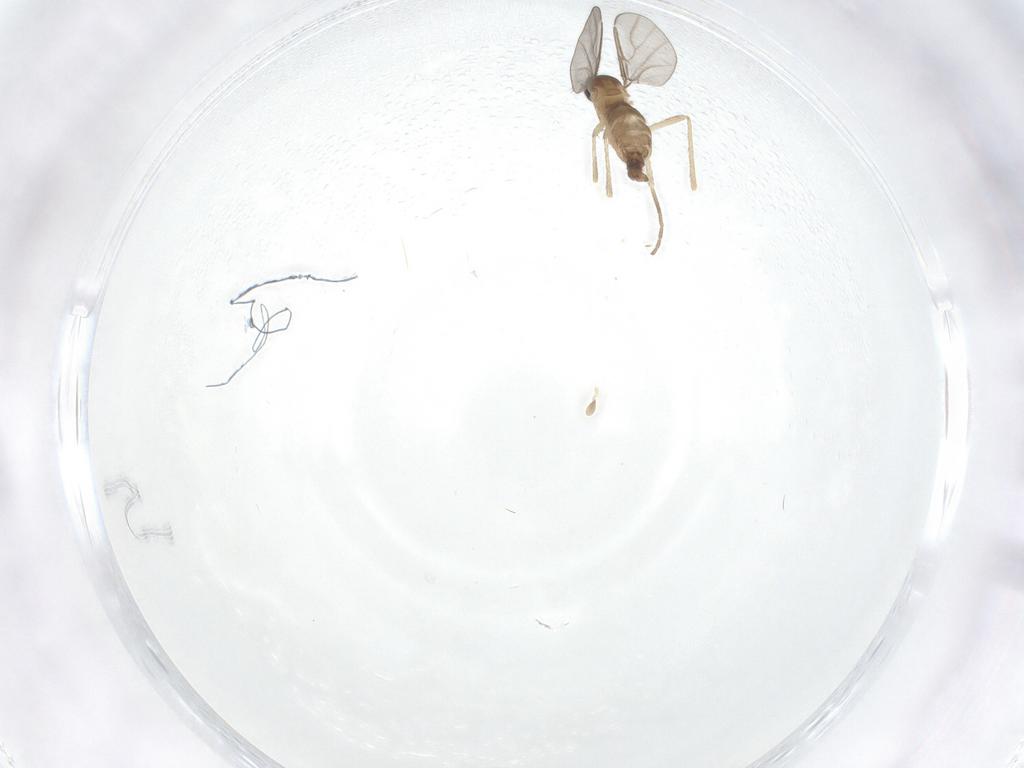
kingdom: Animalia
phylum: Arthropoda
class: Insecta
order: Diptera
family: Cecidomyiidae
